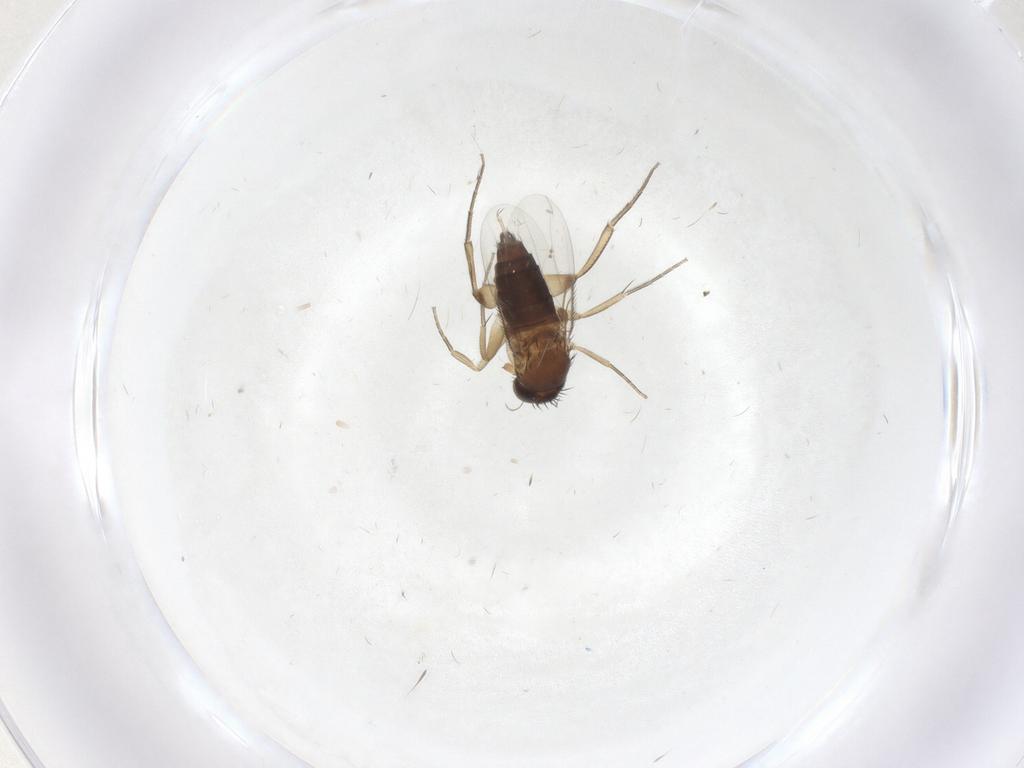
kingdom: Animalia
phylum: Arthropoda
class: Insecta
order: Diptera
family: Phoridae
